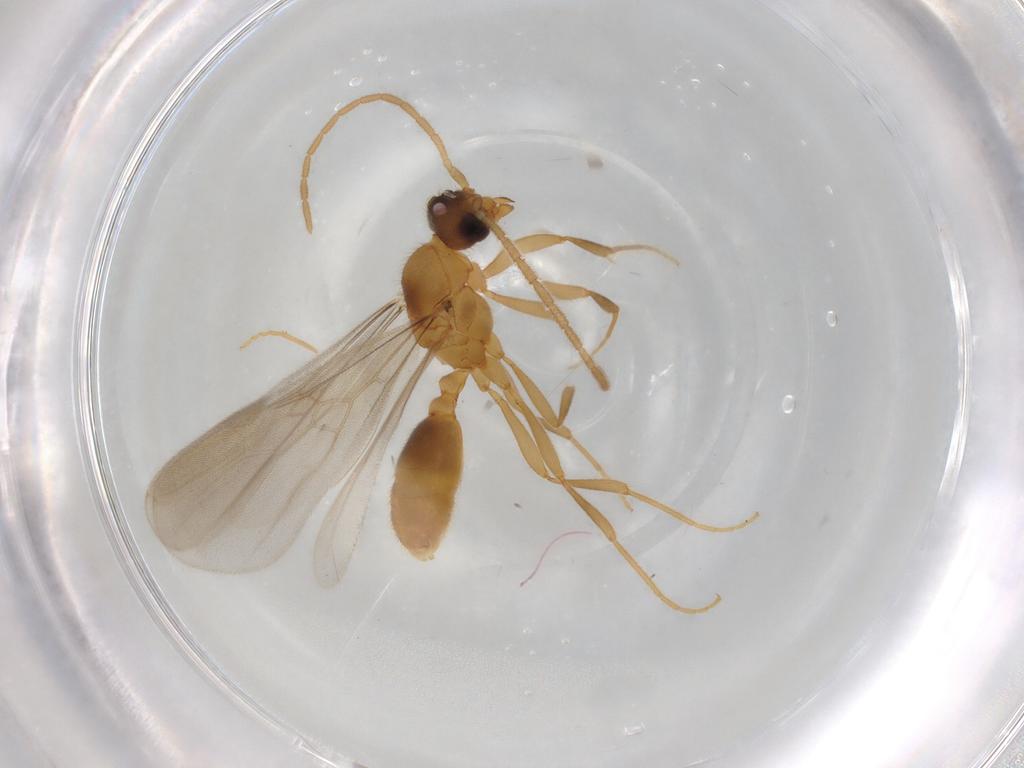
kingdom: Animalia
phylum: Arthropoda
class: Insecta
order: Hymenoptera
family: Formicidae
